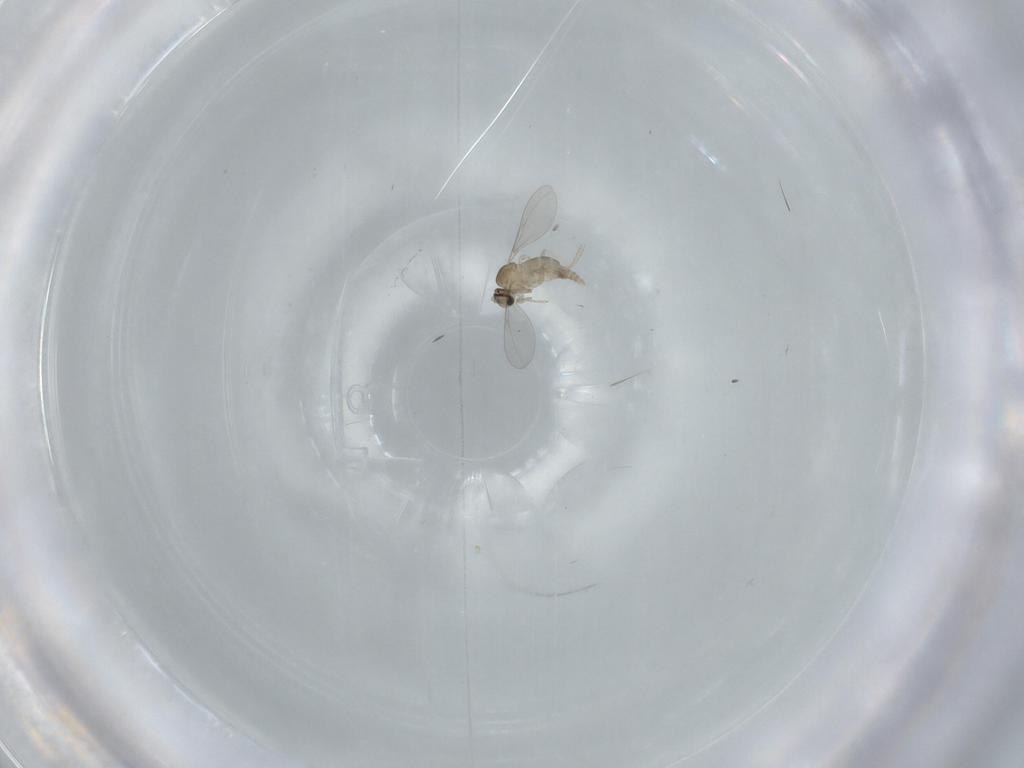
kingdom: Animalia
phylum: Arthropoda
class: Insecta
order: Diptera
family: Cecidomyiidae
